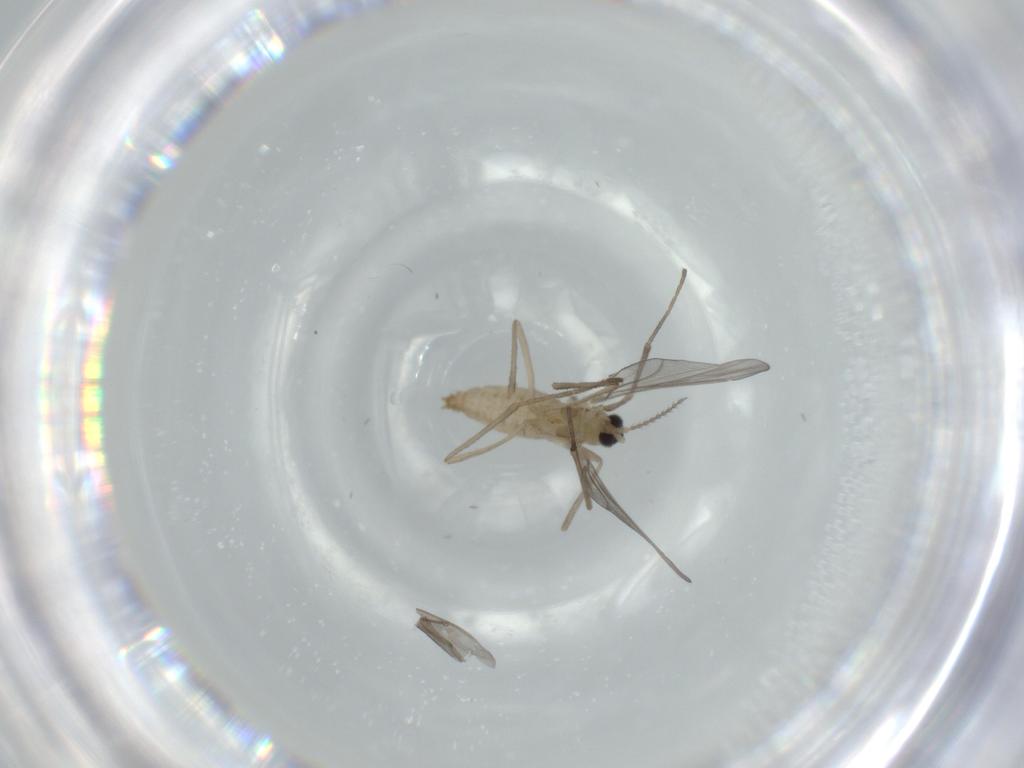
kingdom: Animalia
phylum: Arthropoda
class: Insecta
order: Diptera
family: Cecidomyiidae
